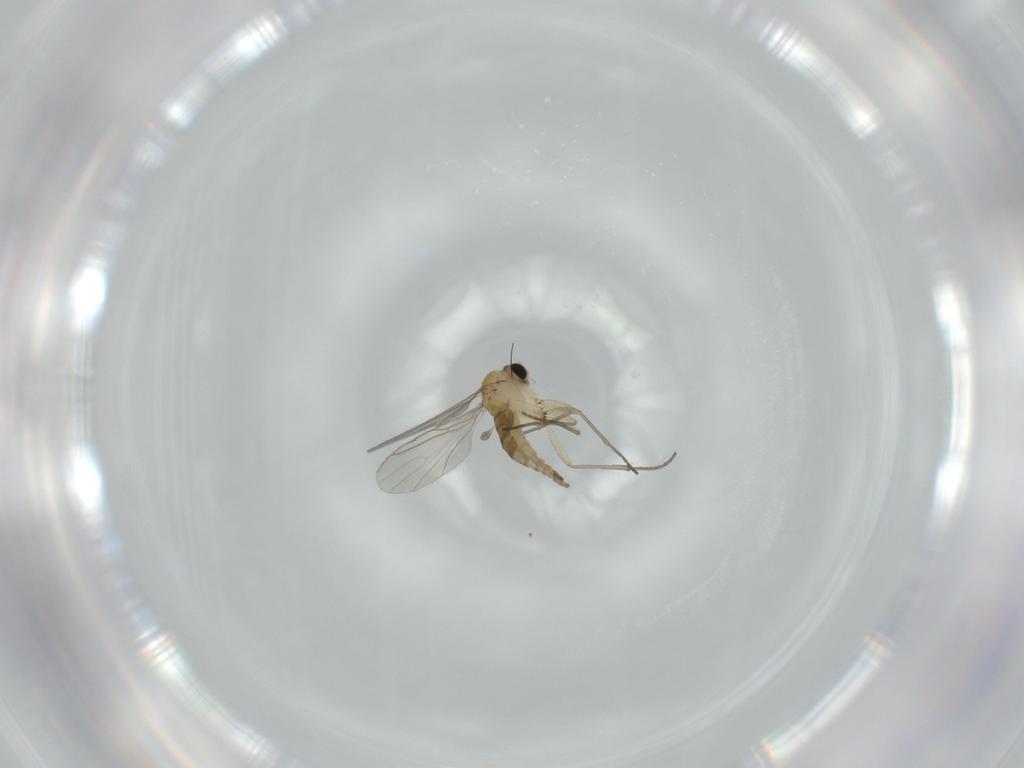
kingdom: Animalia
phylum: Arthropoda
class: Insecta
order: Diptera
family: Sciaridae
